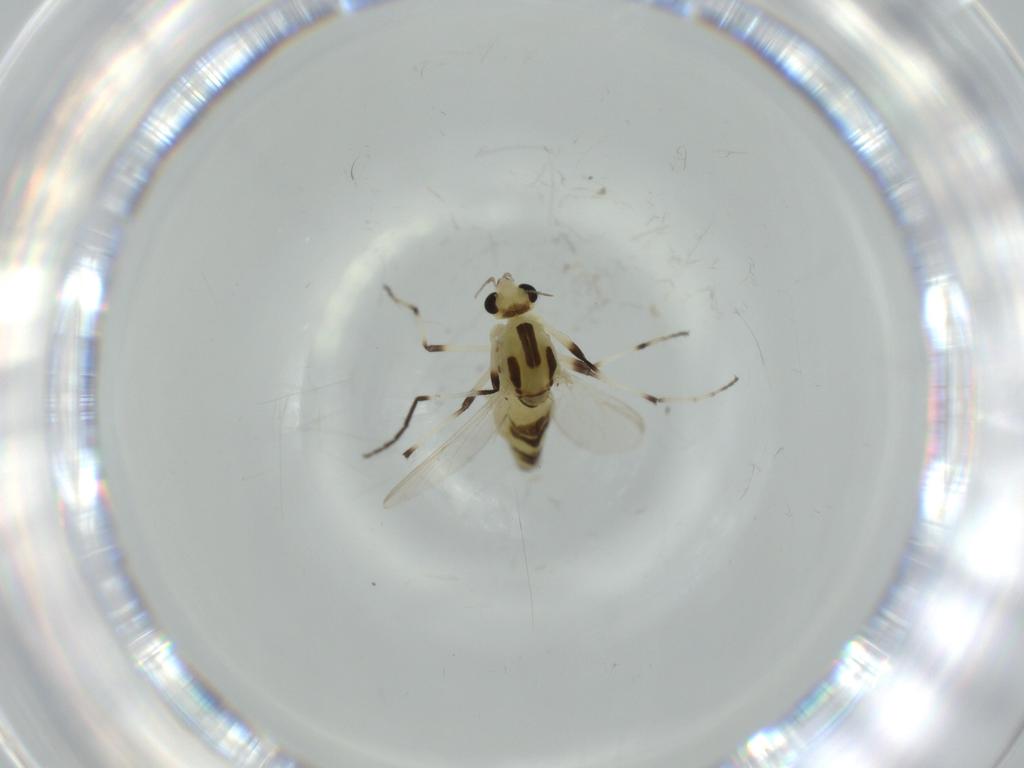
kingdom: Animalia
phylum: Arthropoda
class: Insecta
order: Diptera
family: Chironomidae
